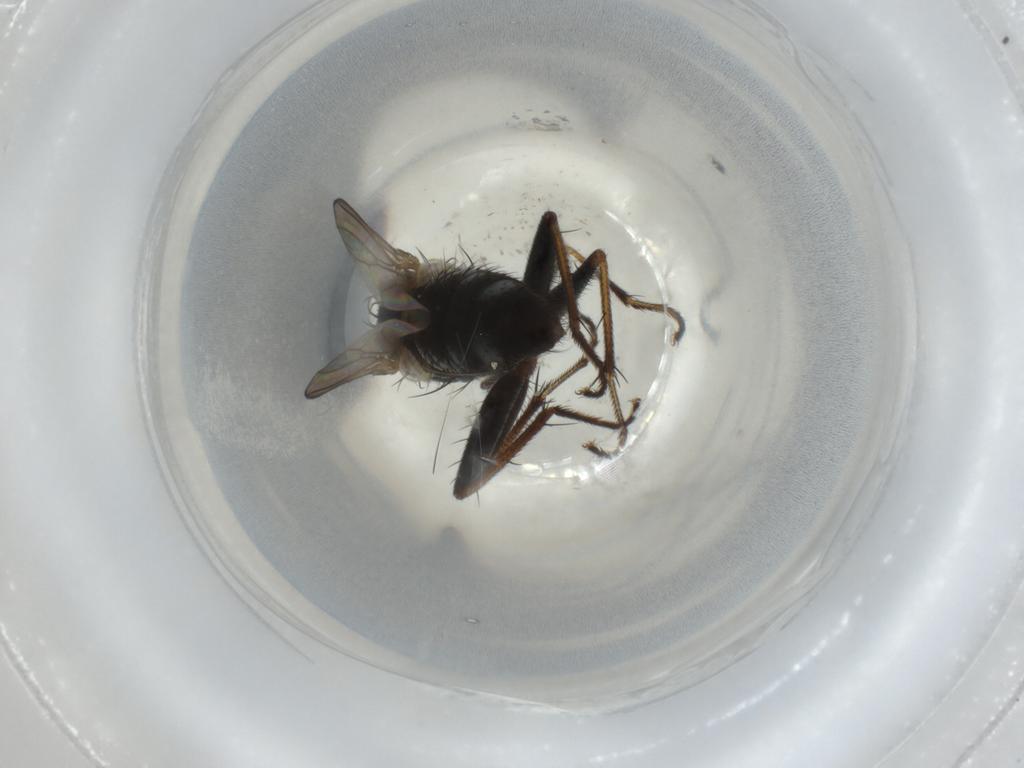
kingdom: Animalia
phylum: Arthropoda
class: Insecta
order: Diptera
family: Muscidae
